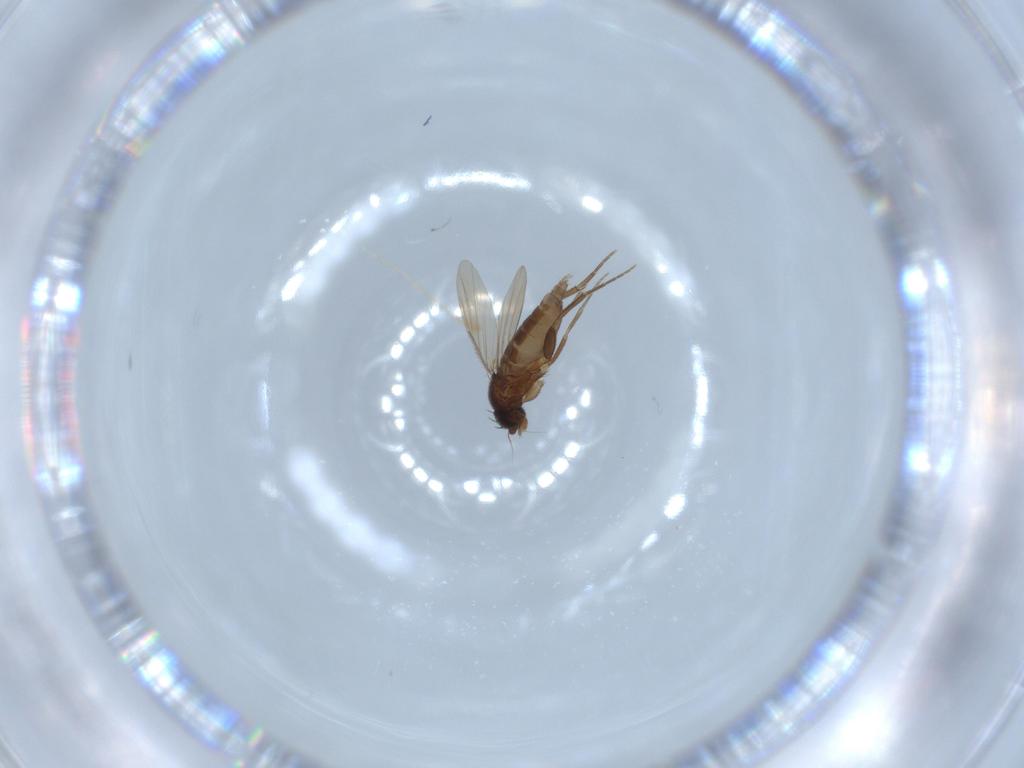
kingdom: Animalia
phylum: Arthropoda
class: Insecta
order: Diptera
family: Phoridae
